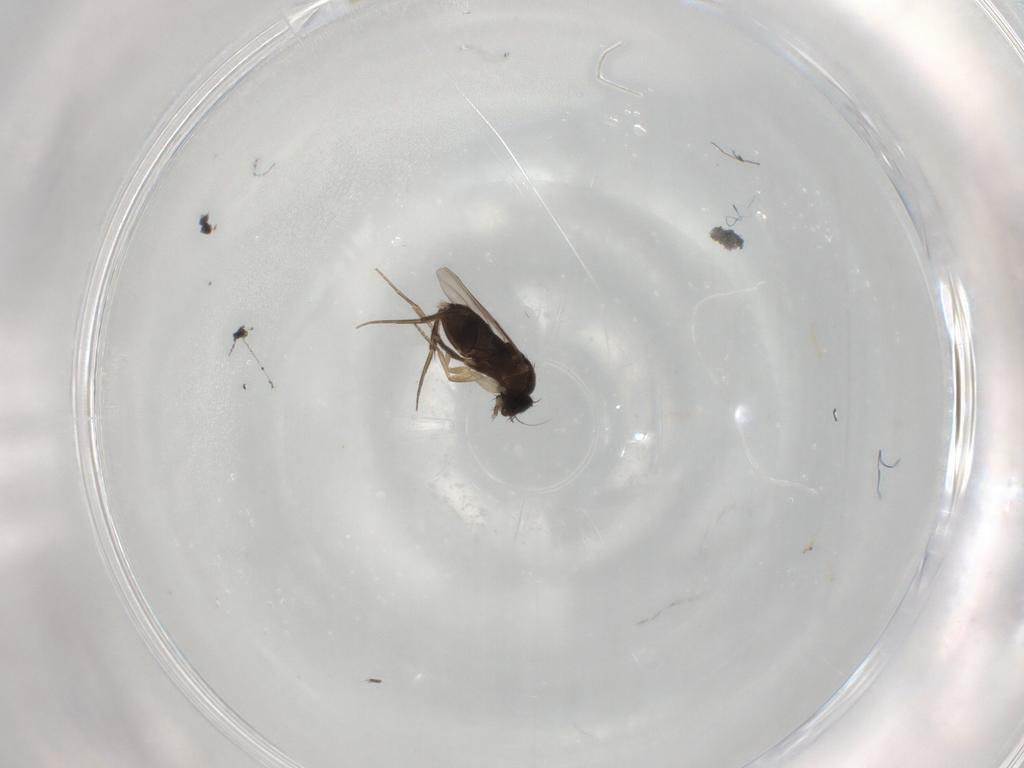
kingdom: Animalia
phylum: Arthropoda
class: Insecta
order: Diptera
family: Phoridae
